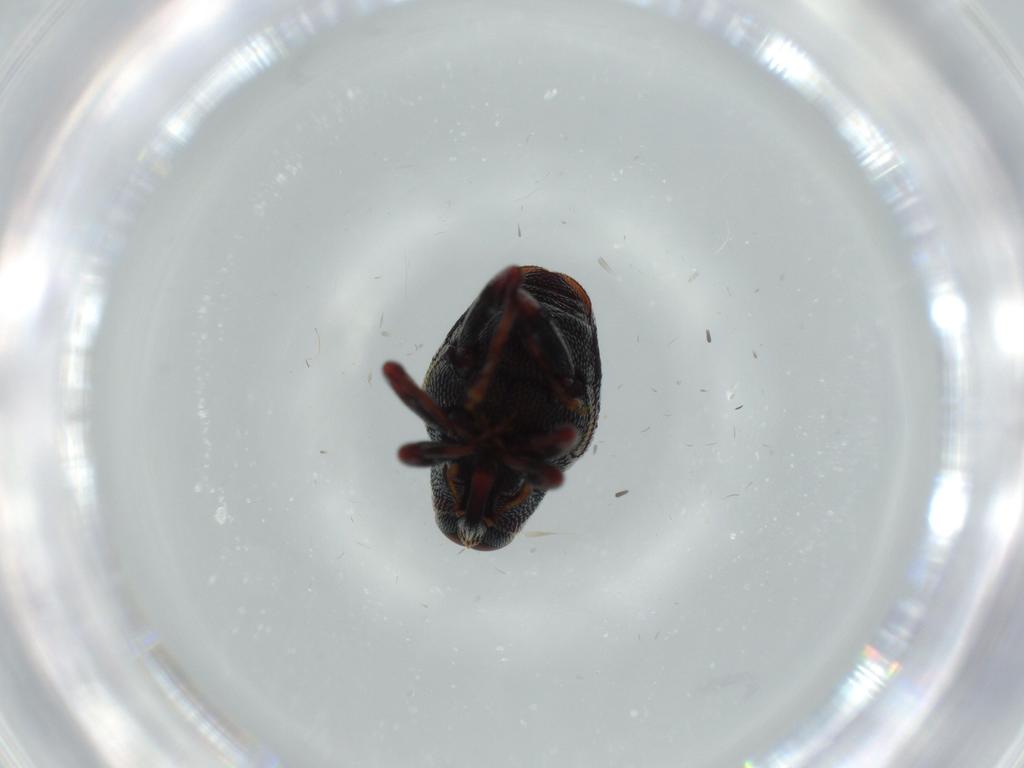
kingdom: Animalia
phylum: Arthropoda
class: Insecta
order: Coleoptera
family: Curculionidae
